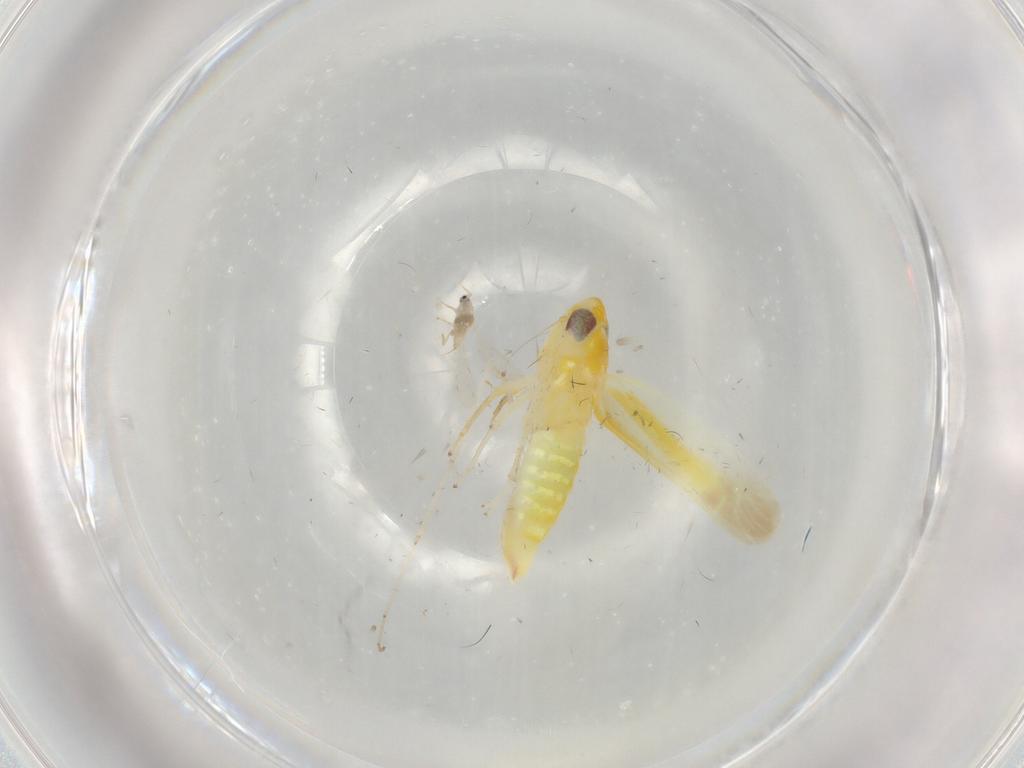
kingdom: Animalia
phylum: Arthropoda
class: Insecta
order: Hemiptera
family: Cicadellidae
